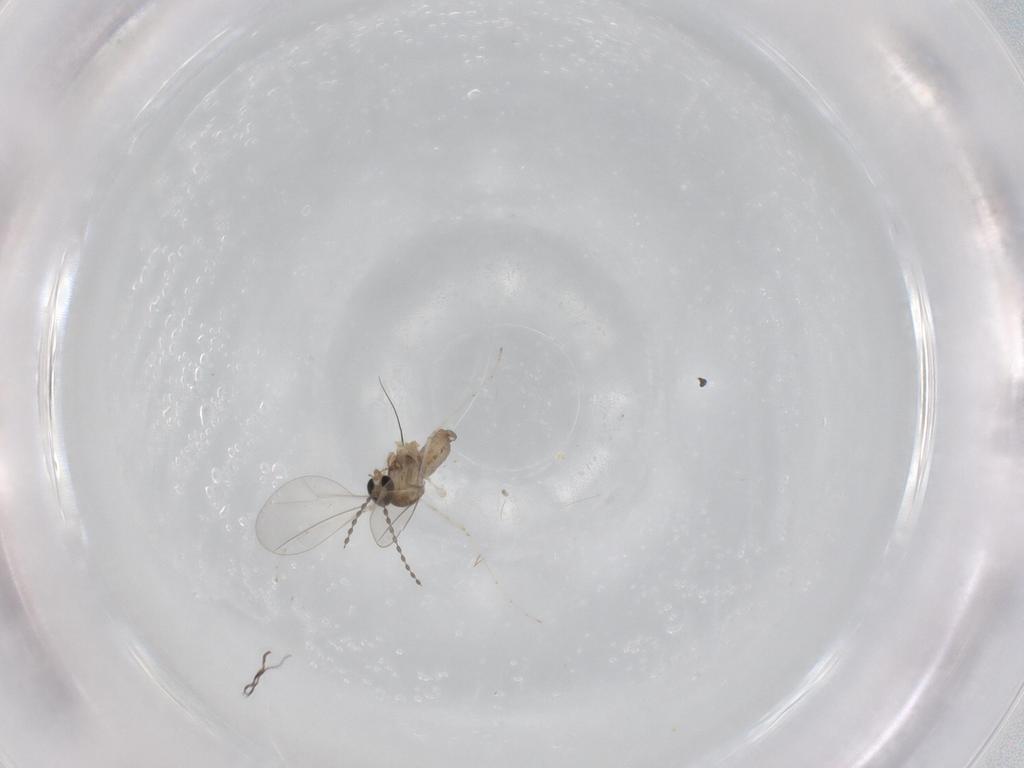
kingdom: Animalia
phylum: Arthropoda
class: Insecta
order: Diptera
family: Cecidomyiidae
